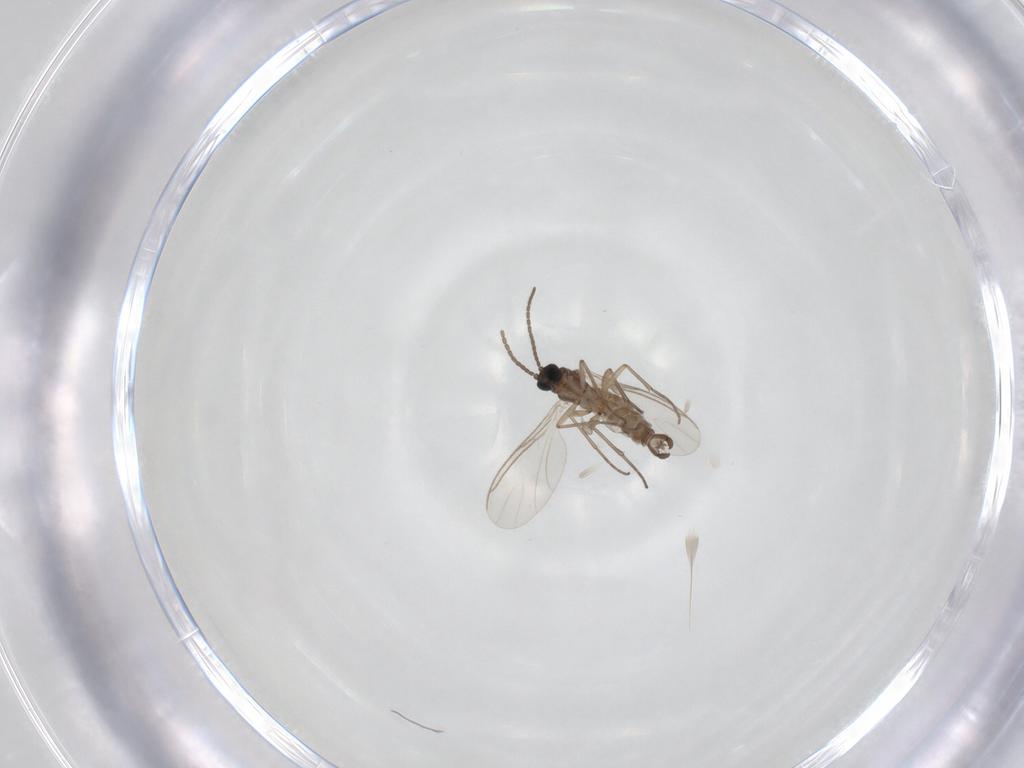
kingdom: Animalia
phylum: Arthropoda
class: Insecta
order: Diptera
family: Sciaridae
